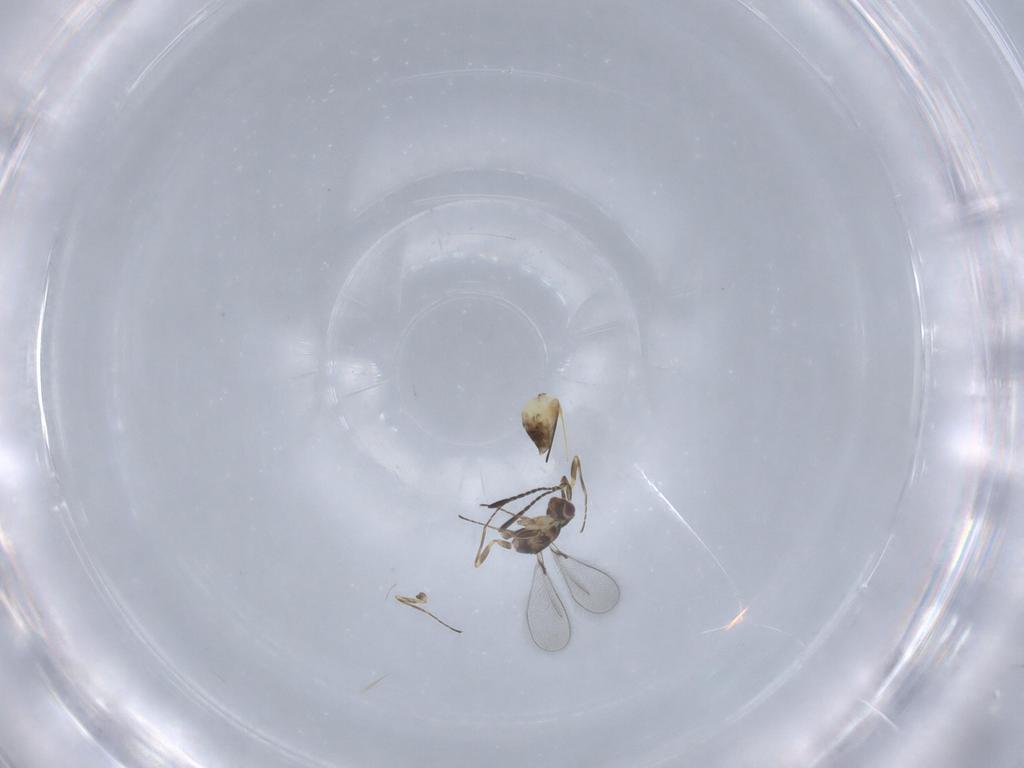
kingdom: Animalia
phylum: Arthropoda
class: Insecta
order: Hymenoptera
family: Mymaridae
